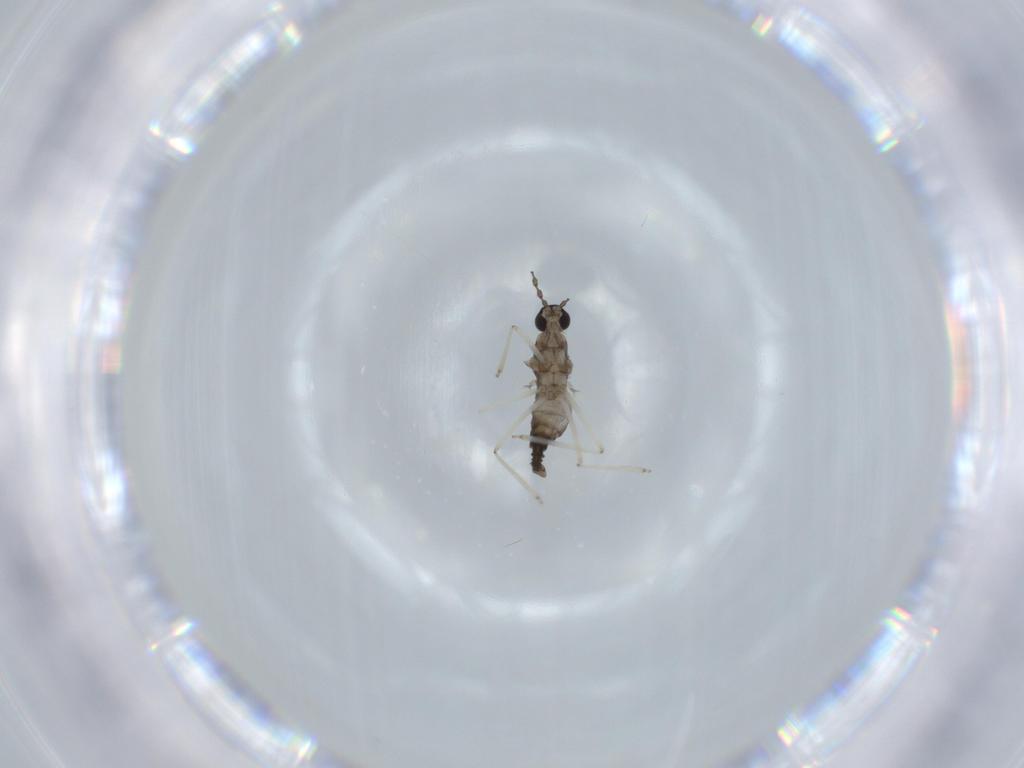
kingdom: Animalia
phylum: Arthropoda
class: Insecta
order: Diptera
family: Cecidomyiidae
